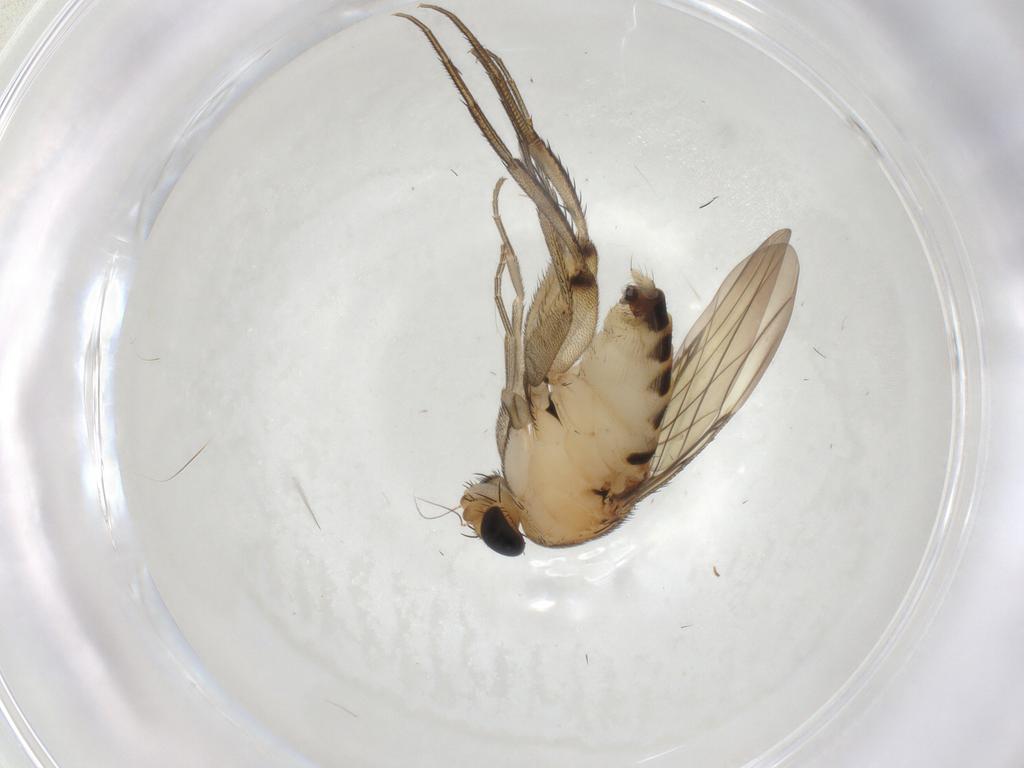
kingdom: Animalia
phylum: Arthropoda
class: Insecta
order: Diptera
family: Phoridae
